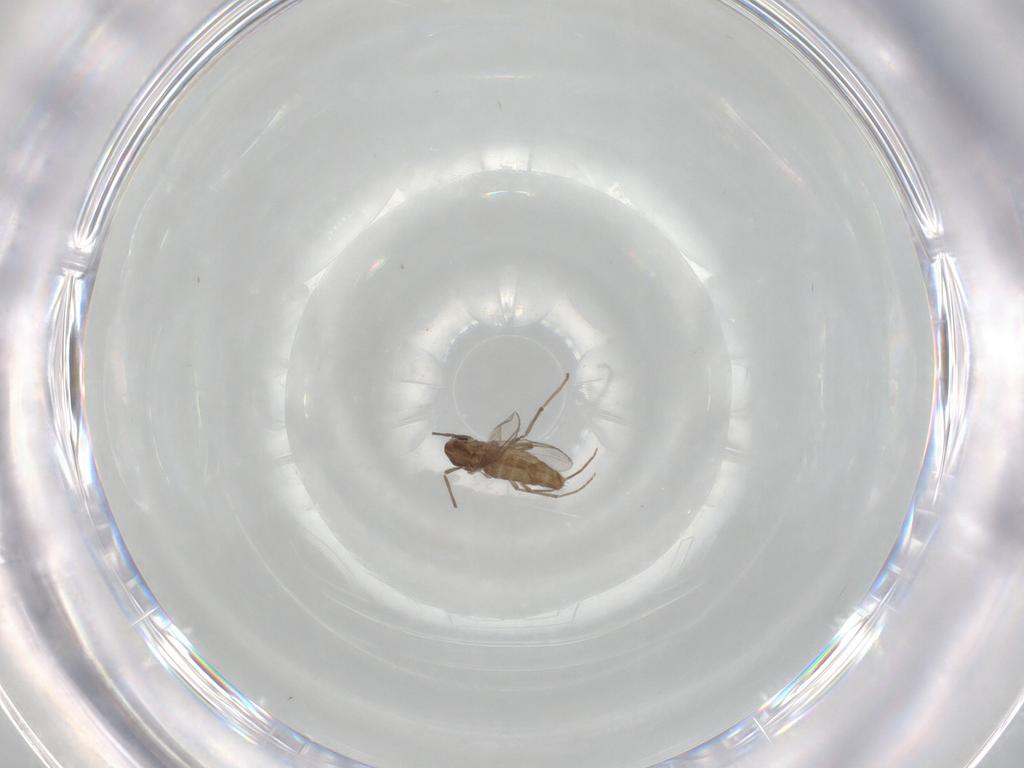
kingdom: Animalia
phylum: Arthropoda
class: Insecta
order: Diptera
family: Chironomidae
